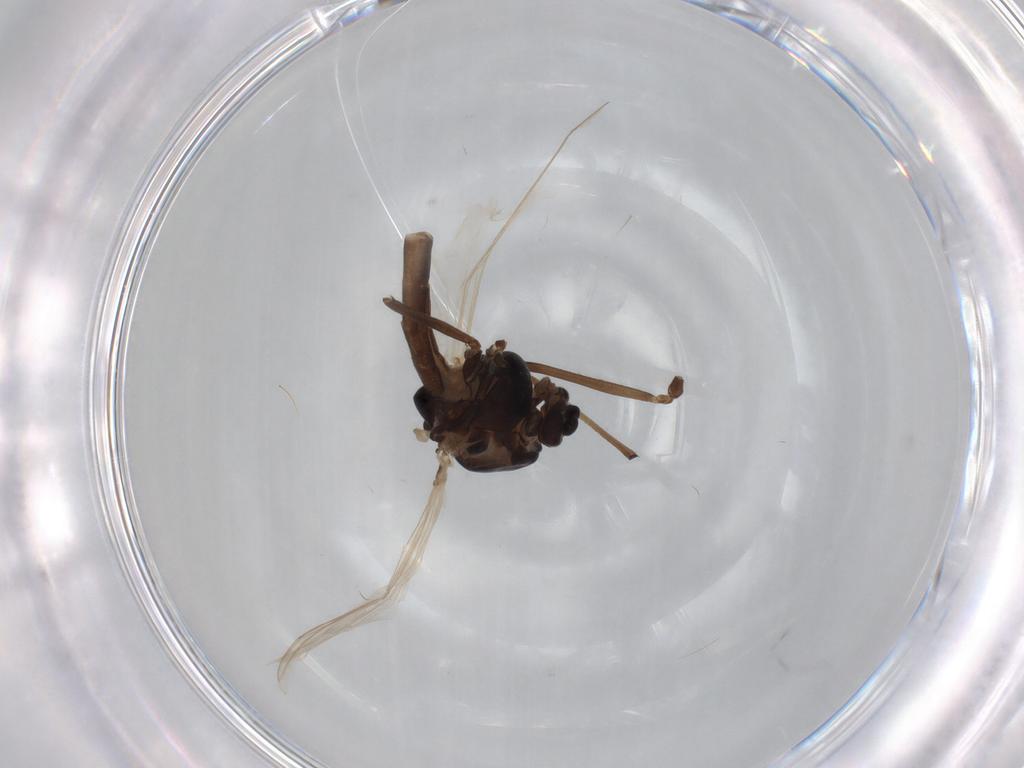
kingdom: Animalia
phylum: Arthropoda
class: Insecta
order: Diptera
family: Chironomidae
